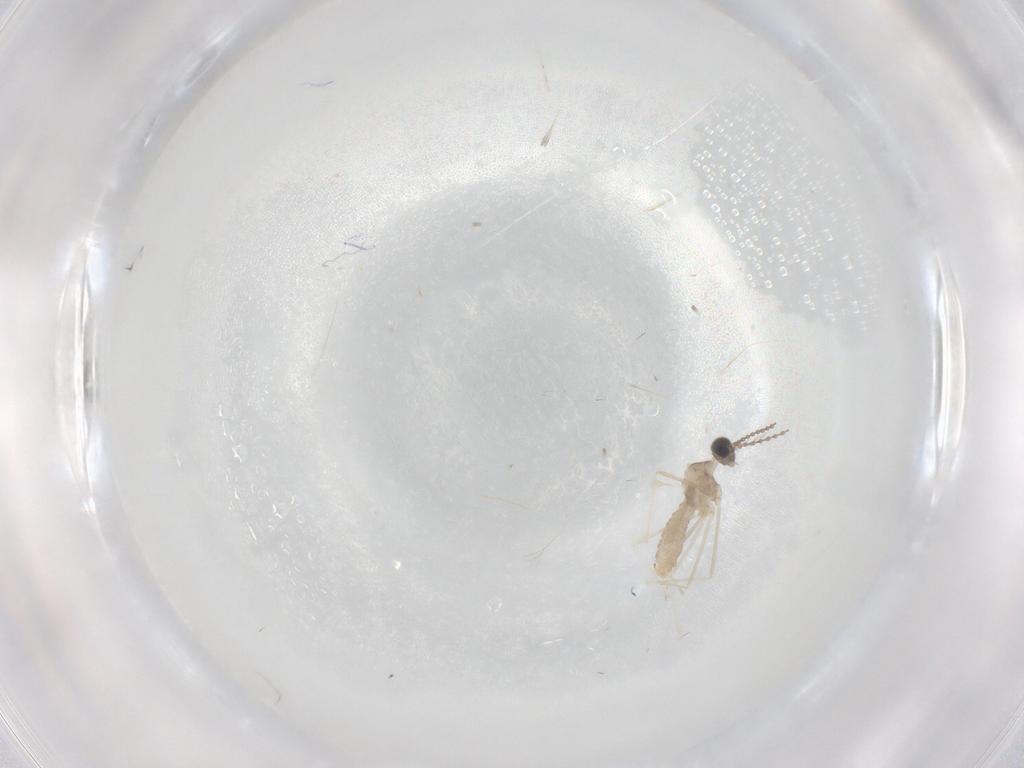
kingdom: Animalia
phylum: Arthropoda
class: Insecta
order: Diptera
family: Cecidomyiidae
